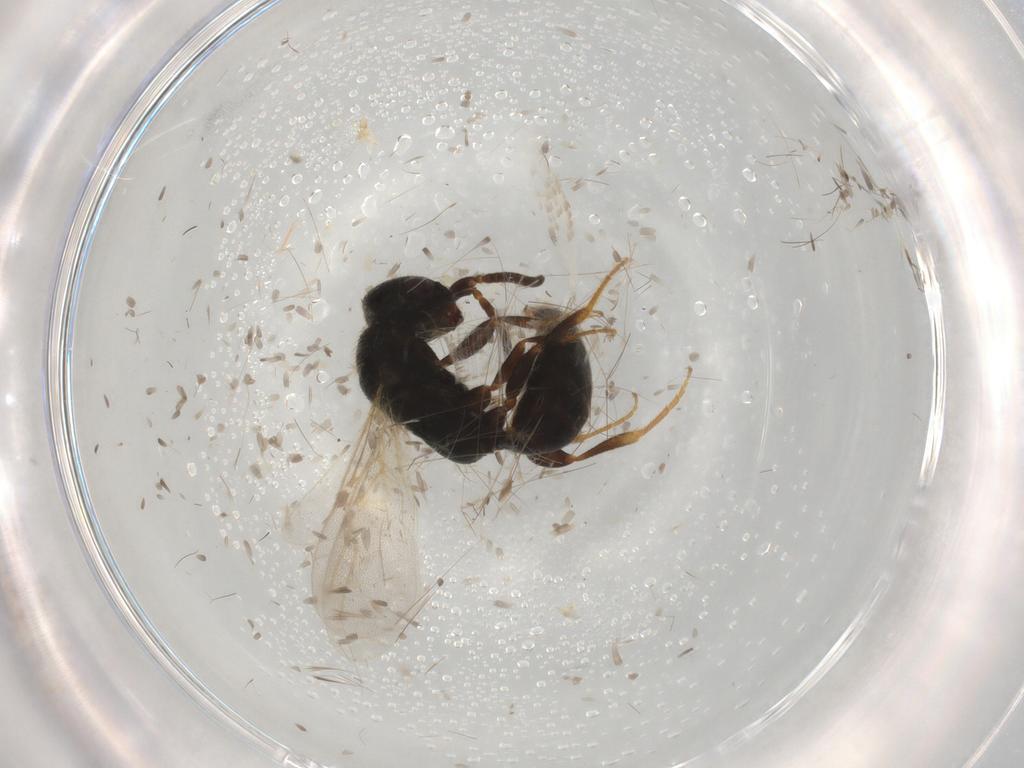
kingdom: Animalia
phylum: Arthropoda
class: Insecta
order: Hymenoptera
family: Bethylidae
